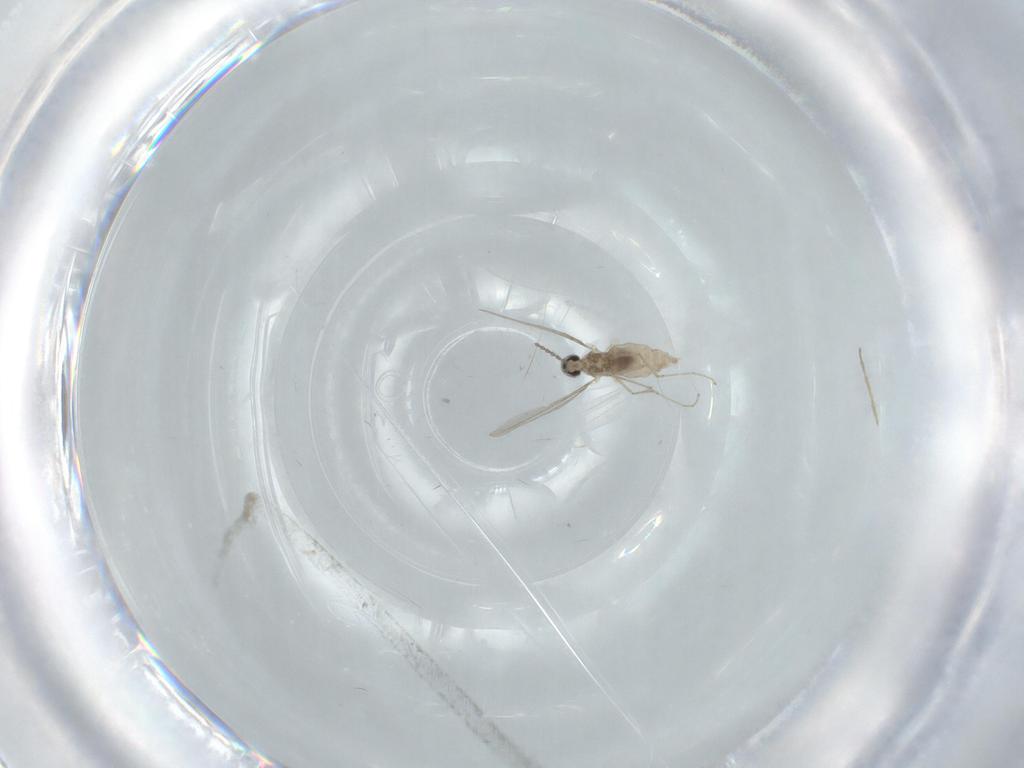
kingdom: Animalia
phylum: Arthropoda
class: Insecta
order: Diptera
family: Chironomidae
